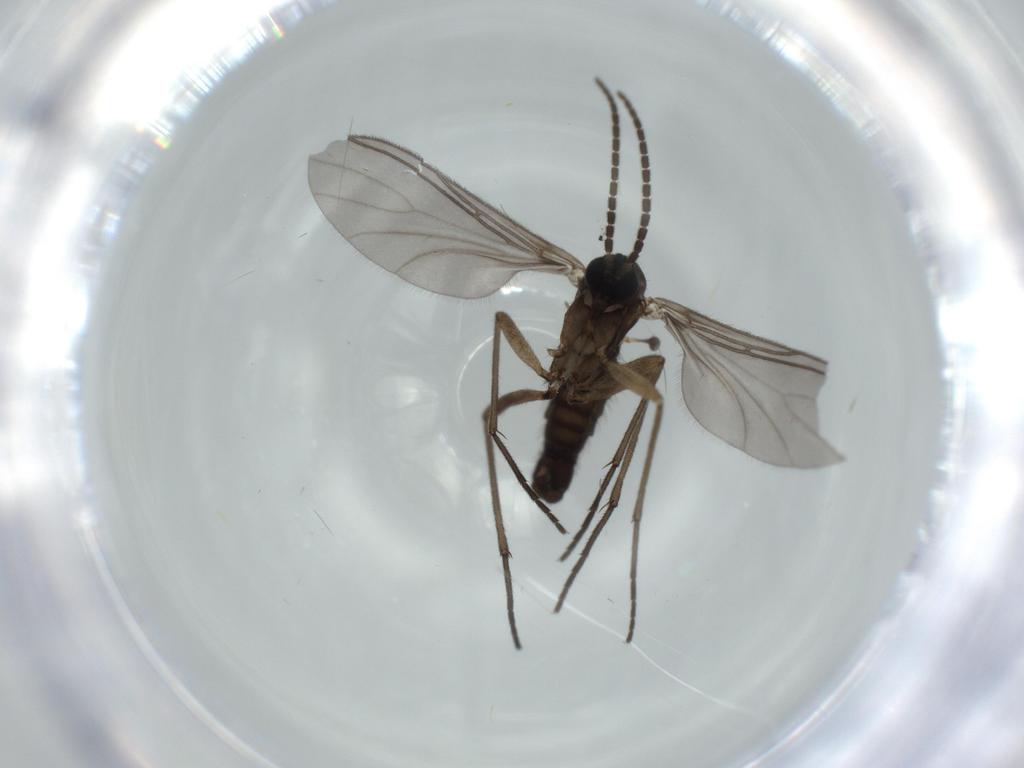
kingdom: Animalia
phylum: Arthropoda
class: Insecta
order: Diptera
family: Sciaridae
